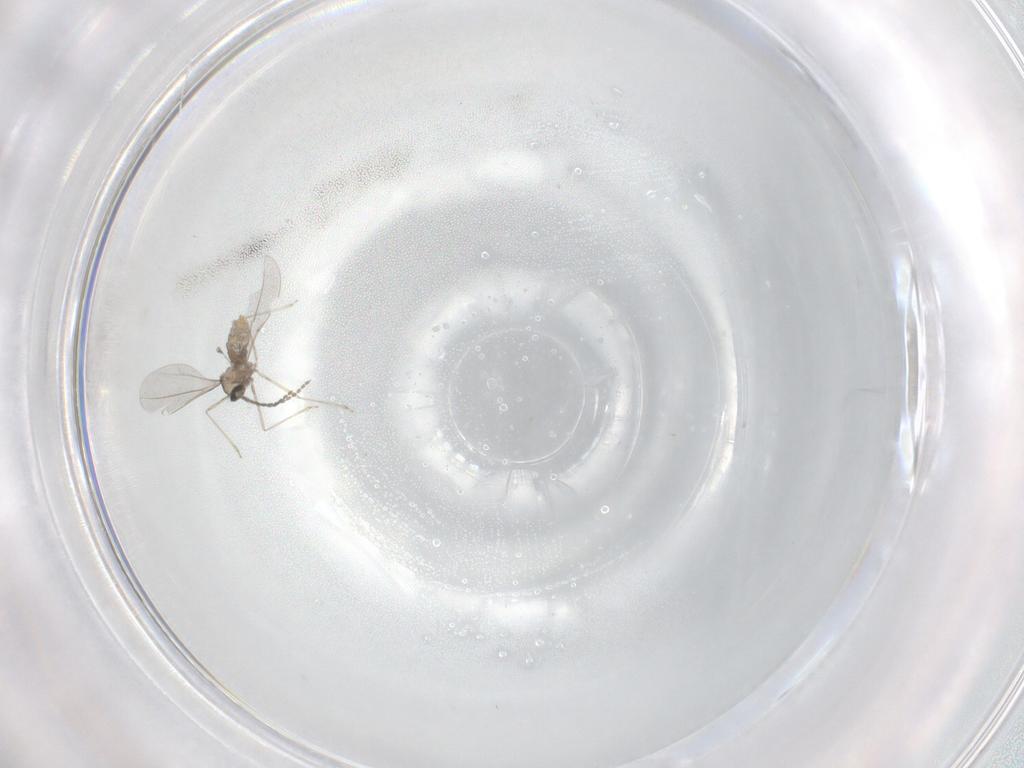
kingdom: Animalia
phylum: Arthropoda
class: Insecta
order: Diptera
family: Cecidomyiidae
